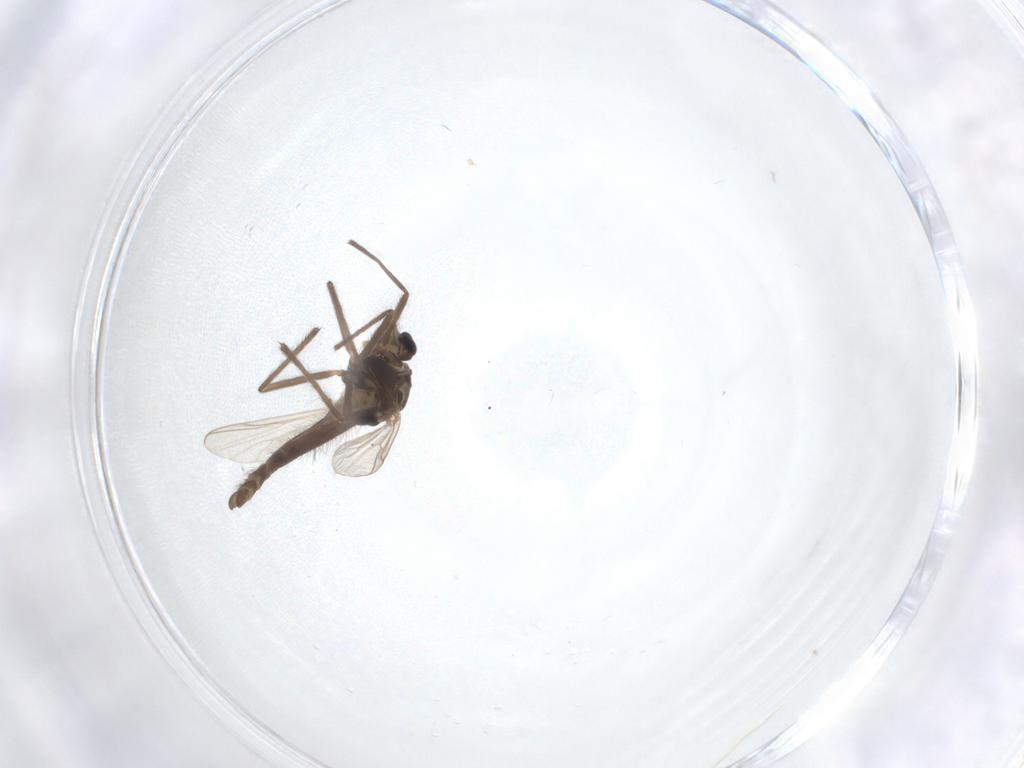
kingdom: Animalia
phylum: Arthropoda
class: Insecta
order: Diptera
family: Chironomidae
